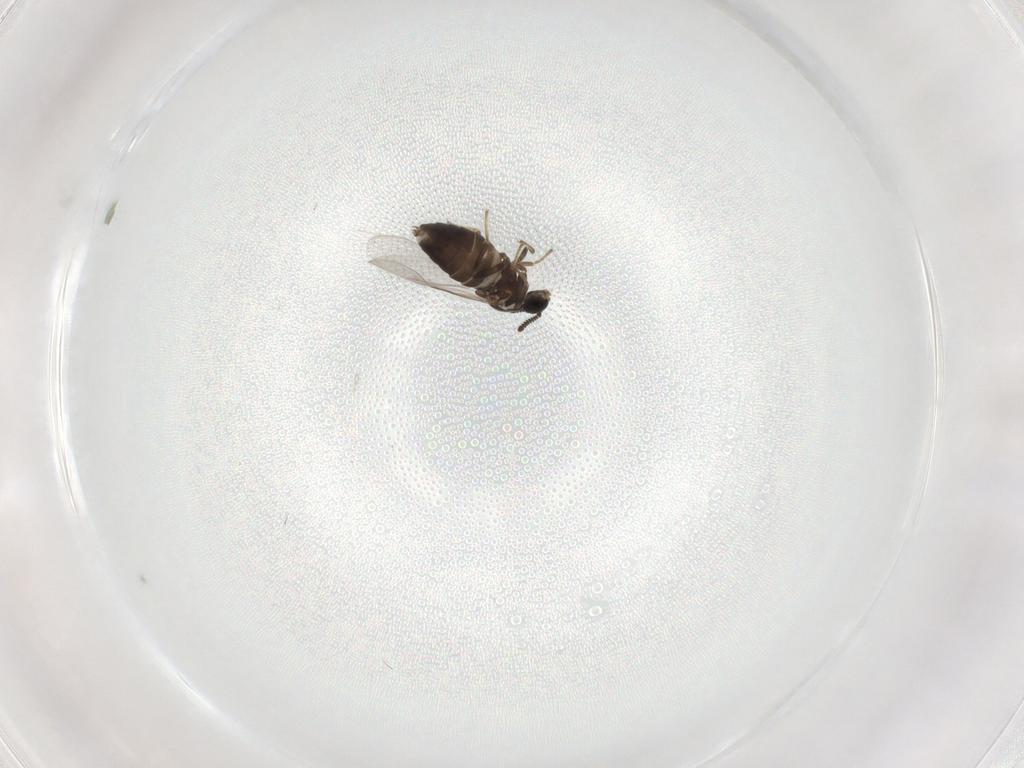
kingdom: Animalia
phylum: Arthropoda
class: Insecta
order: Diptera
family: Scatopsidae
